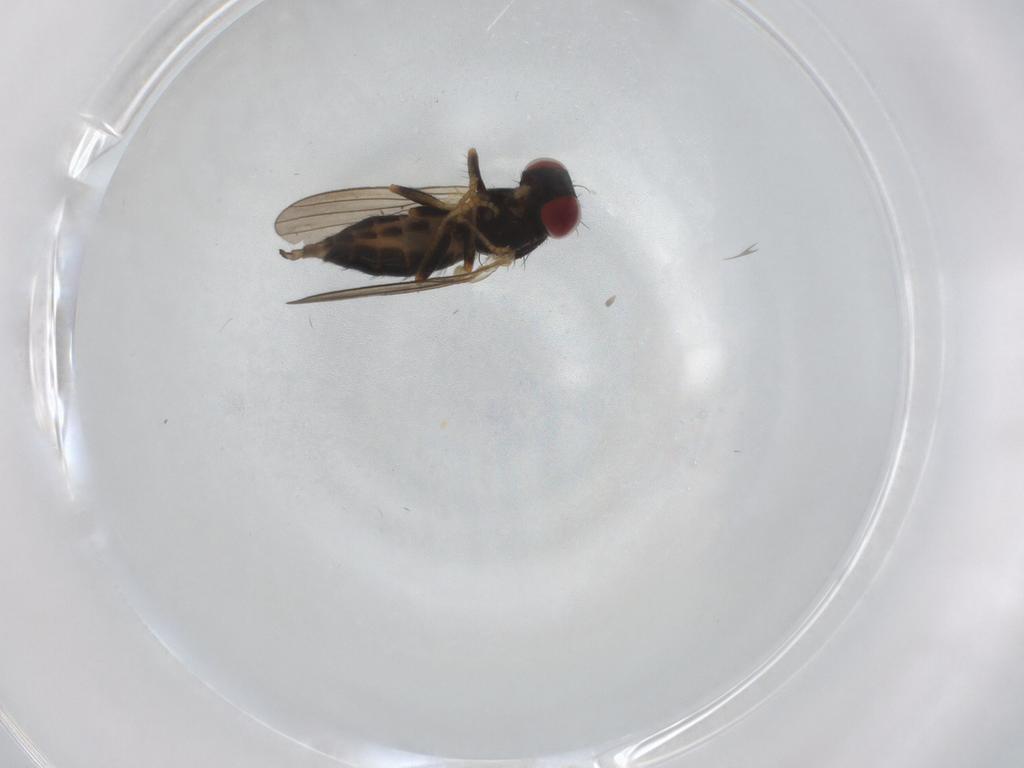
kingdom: Animalia
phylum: Arthropoda
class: Insecta
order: Diptera
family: Chamaemyiidae
